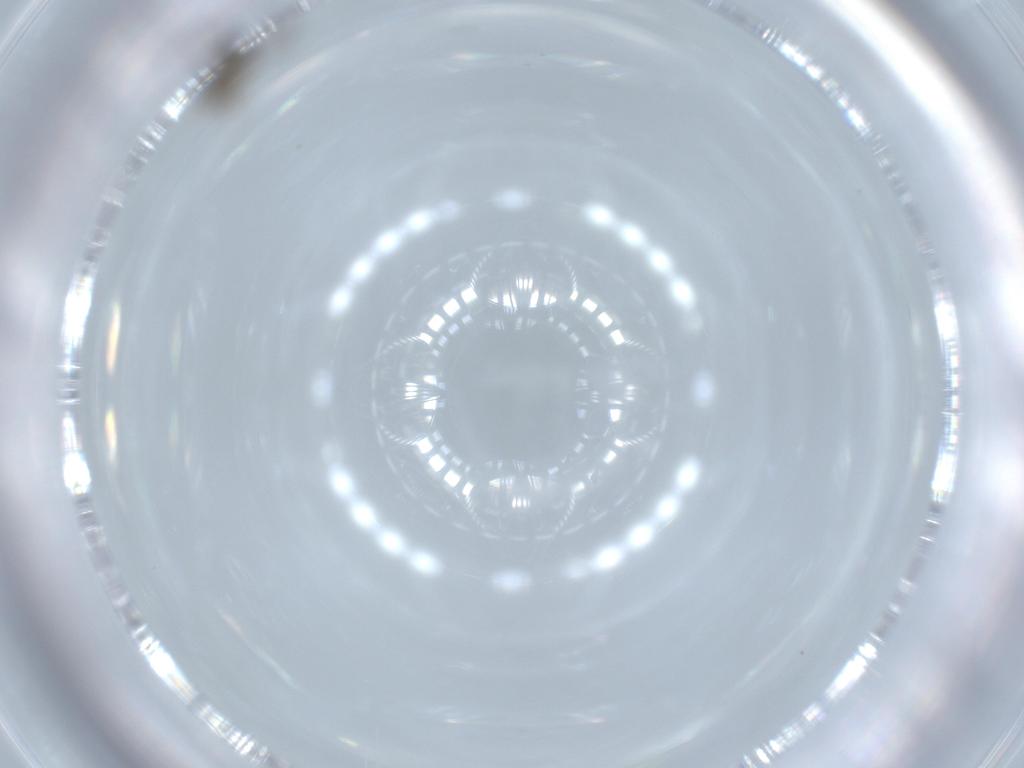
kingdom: Animalia
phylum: Arthropoda
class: Insecta
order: Hymenoptera
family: Platygastridae
